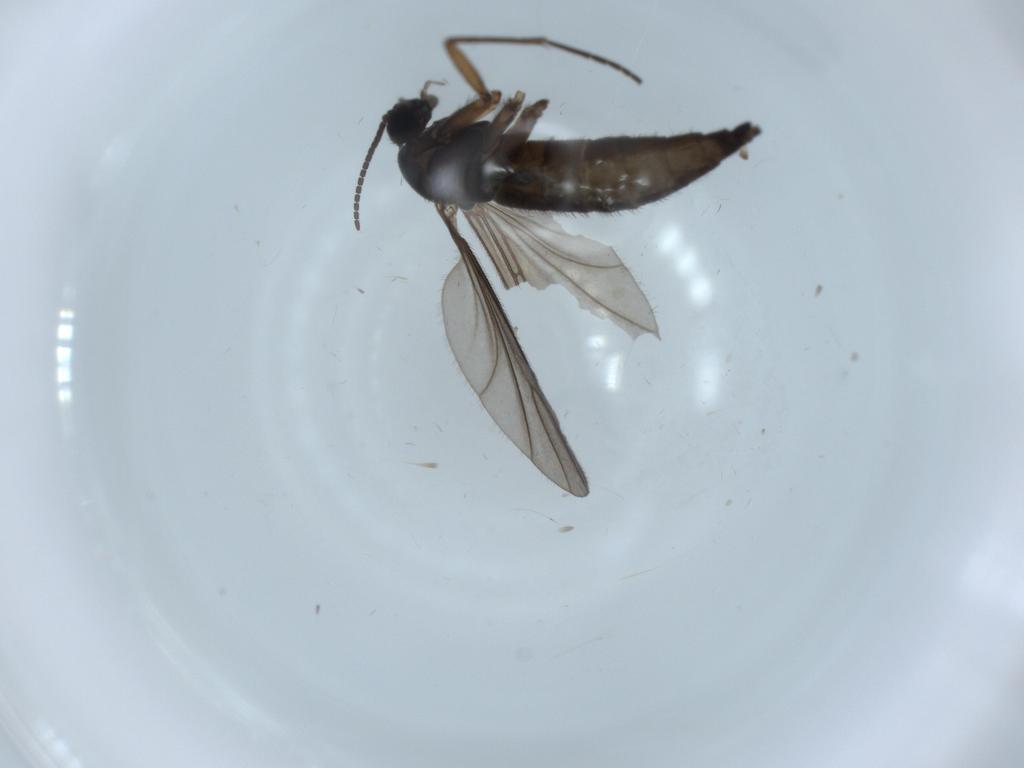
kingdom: Animalia
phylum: Arthropoda
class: Insecta
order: Diptera
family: Sciaridae
